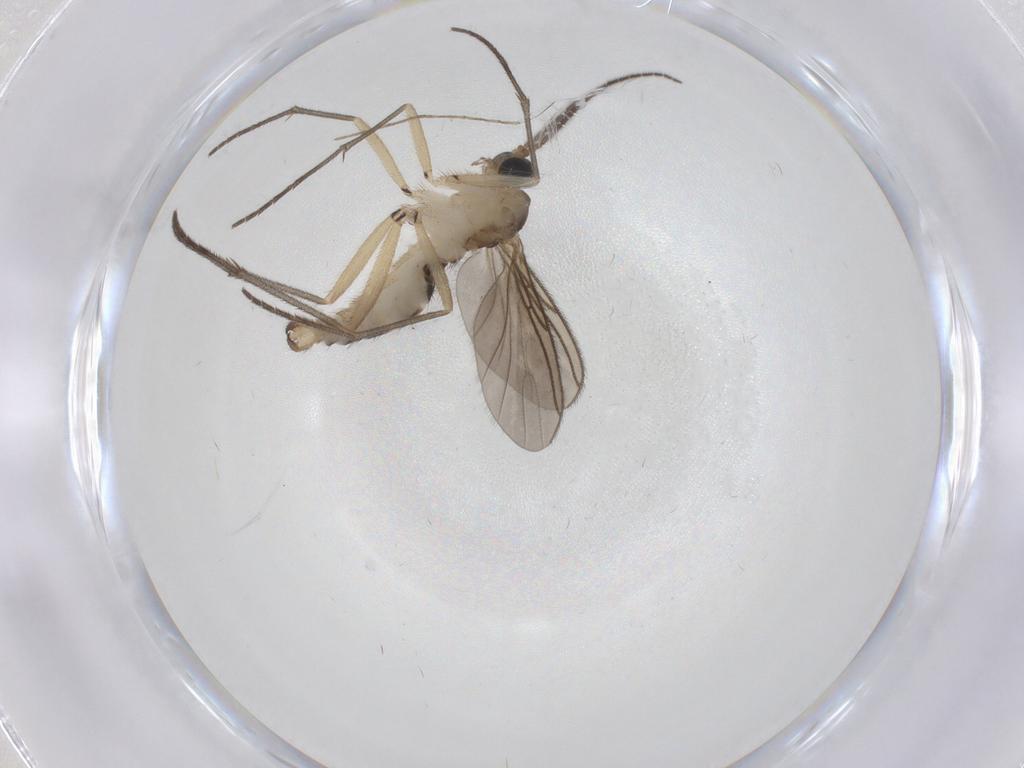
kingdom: Animalia
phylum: Arthropoda
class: Insecta
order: Diptera
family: Sciaridae
